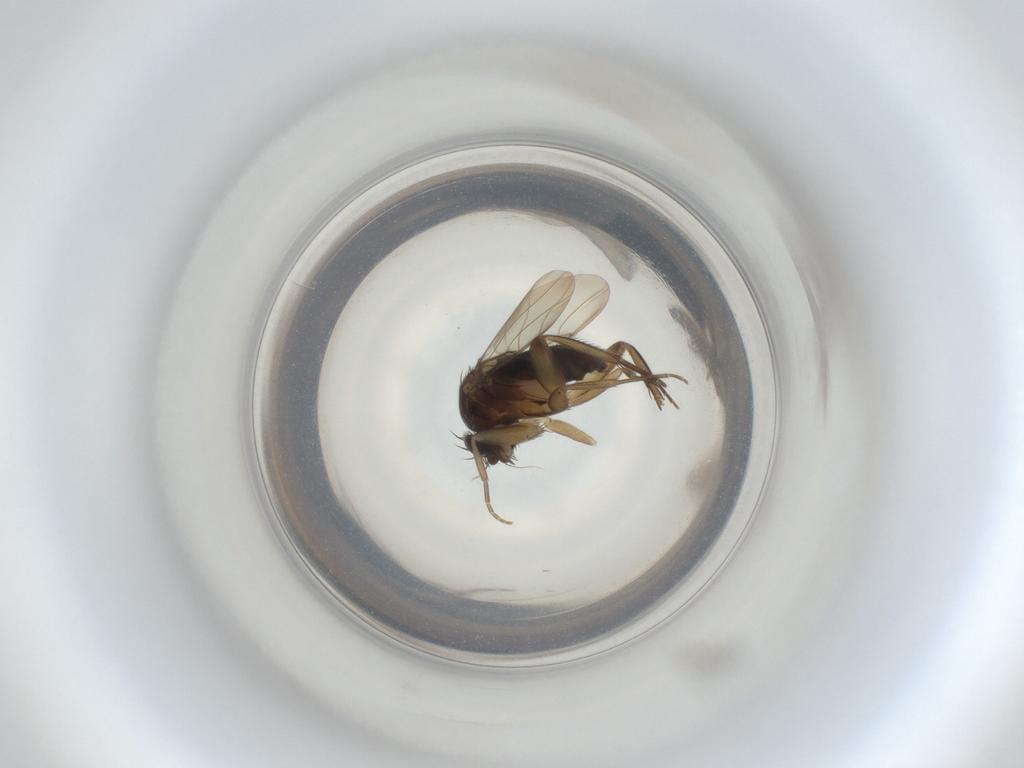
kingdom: Animalia
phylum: Arthropoda
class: Insecta
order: Diptera
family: Phoridae
